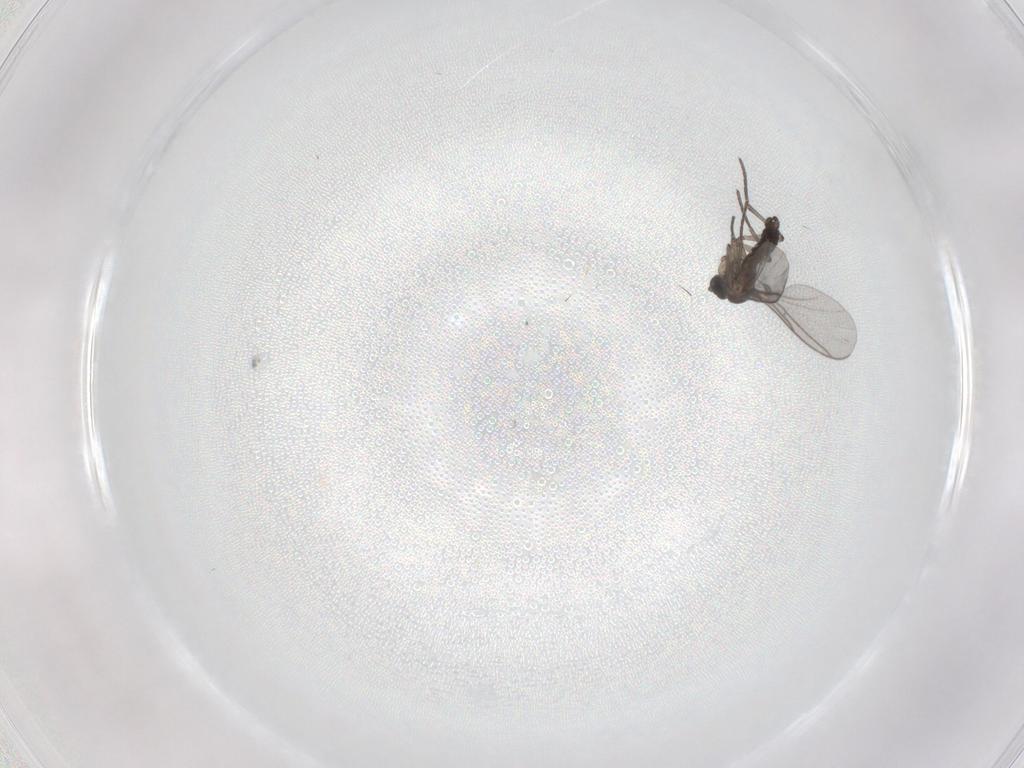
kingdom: Animalia
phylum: Arthropoda
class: Insecta
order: Diptera
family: Sciaridae
